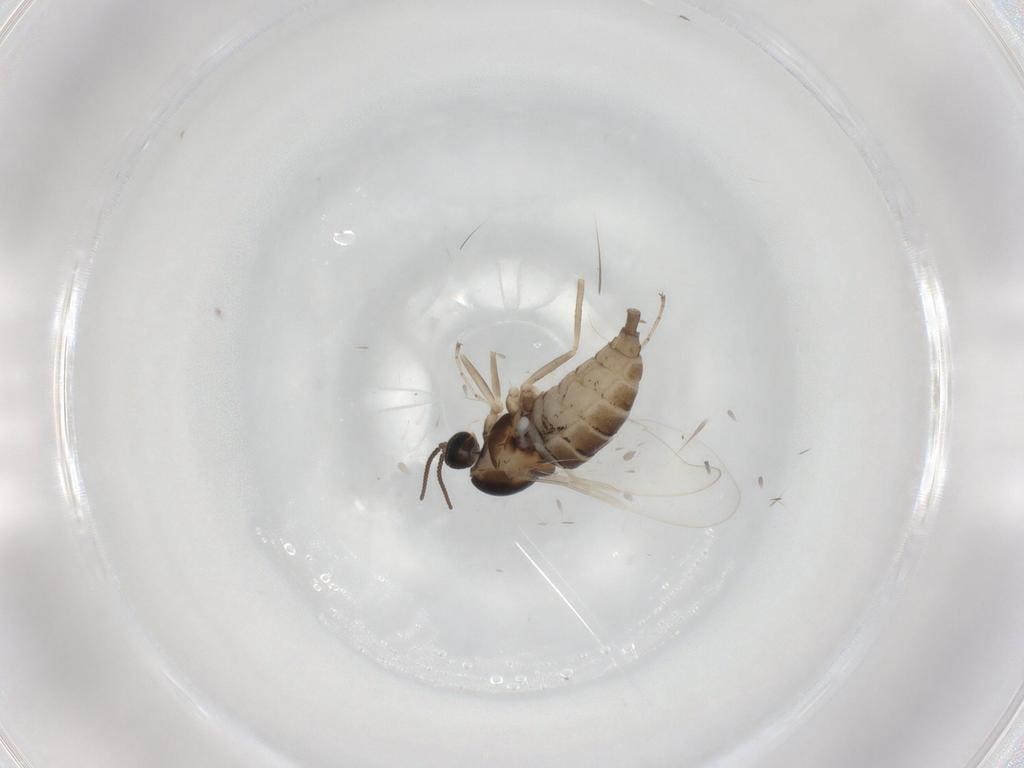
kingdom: Animalia
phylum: Arthropoda
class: Insecta
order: Diptera
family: Cecidomyiidae
